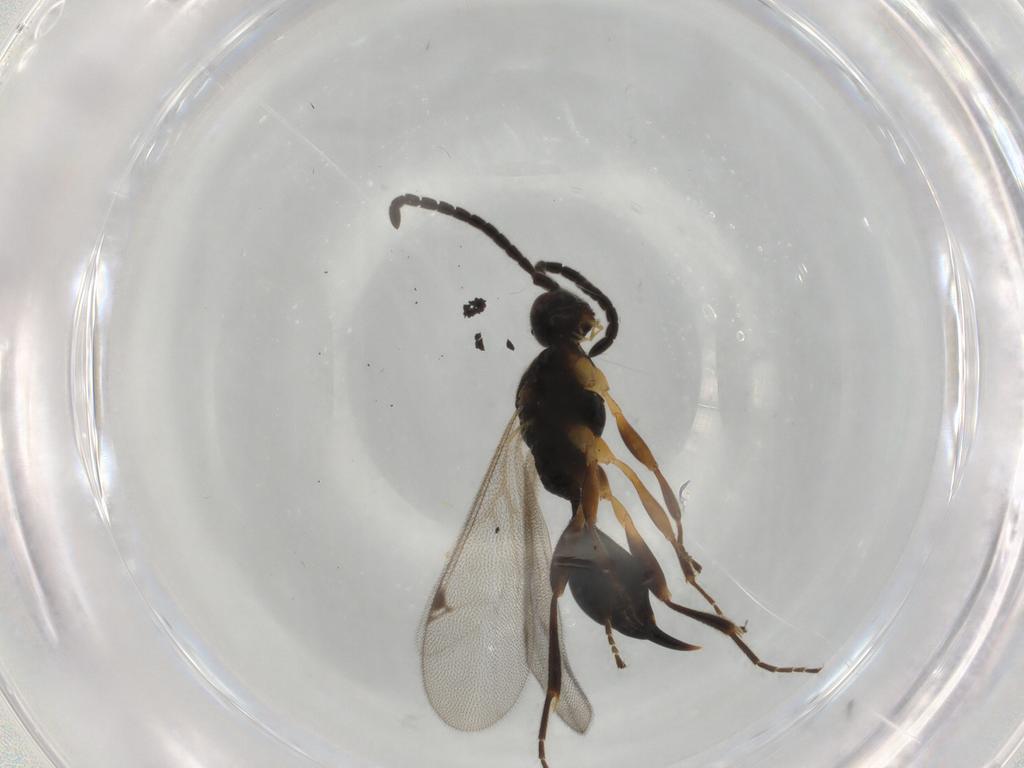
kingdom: Animalia
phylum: Arthropoda
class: Insecta
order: Hymenoptera
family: Proctotrupidae
